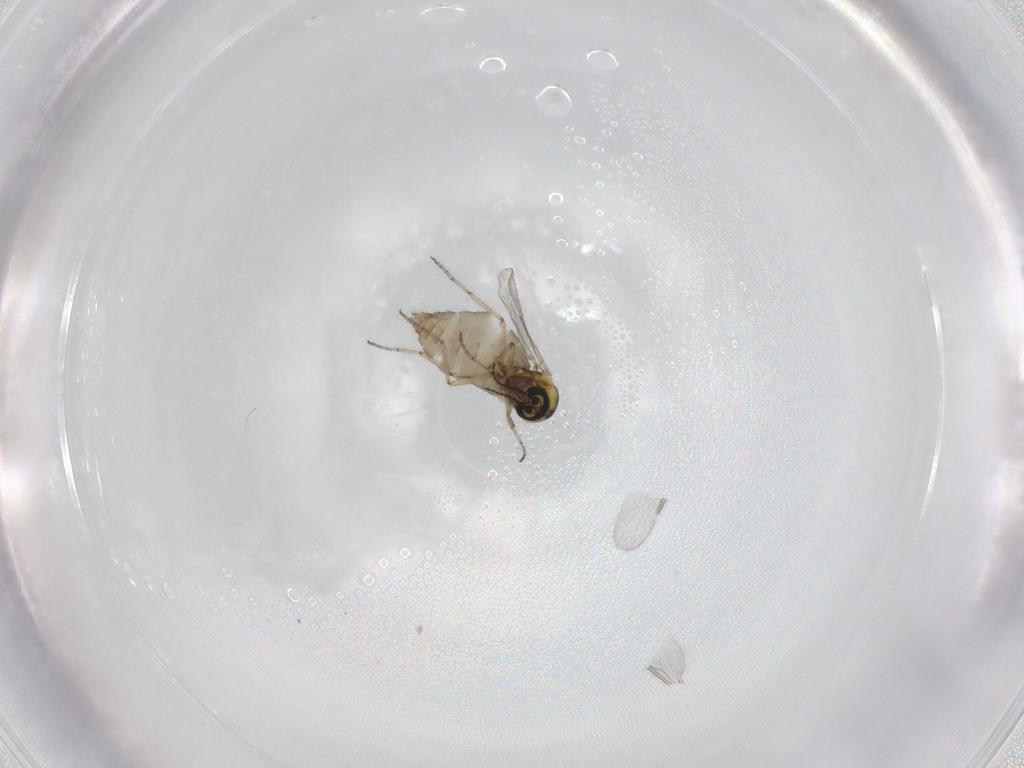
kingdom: Animalia
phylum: Arthropoda
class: Insecta
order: Diptera
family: Ceratopogonidae
